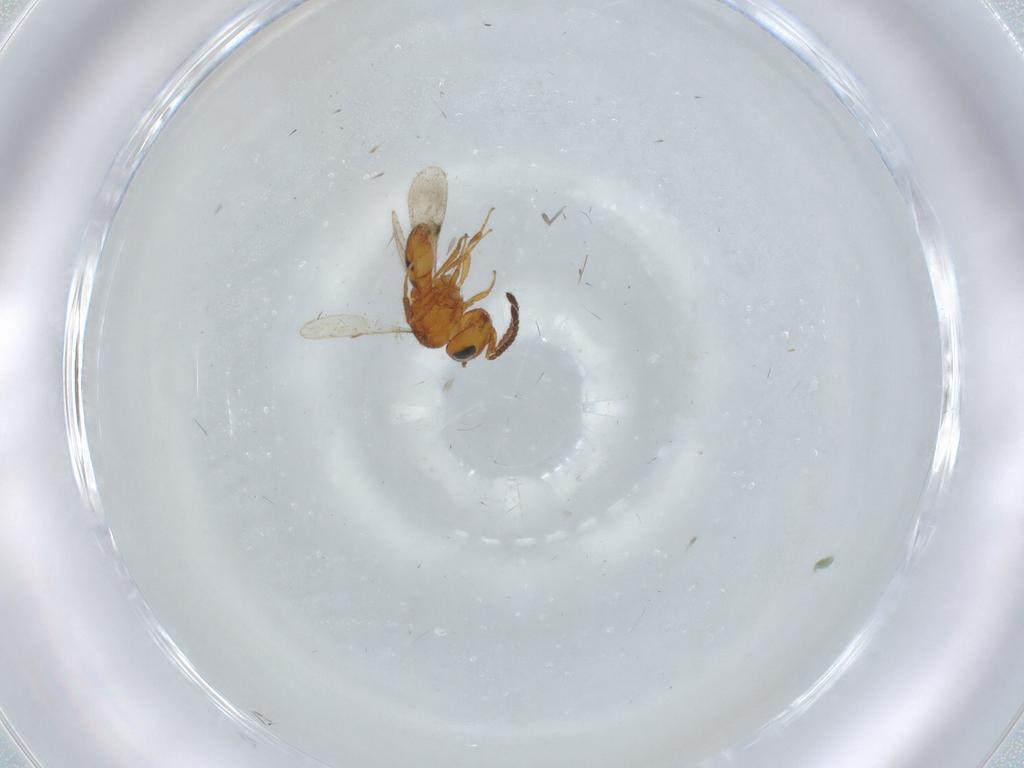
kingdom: Animalia
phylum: Arthropoda
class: Insecta
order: Hymenoptera
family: Scelionidae
